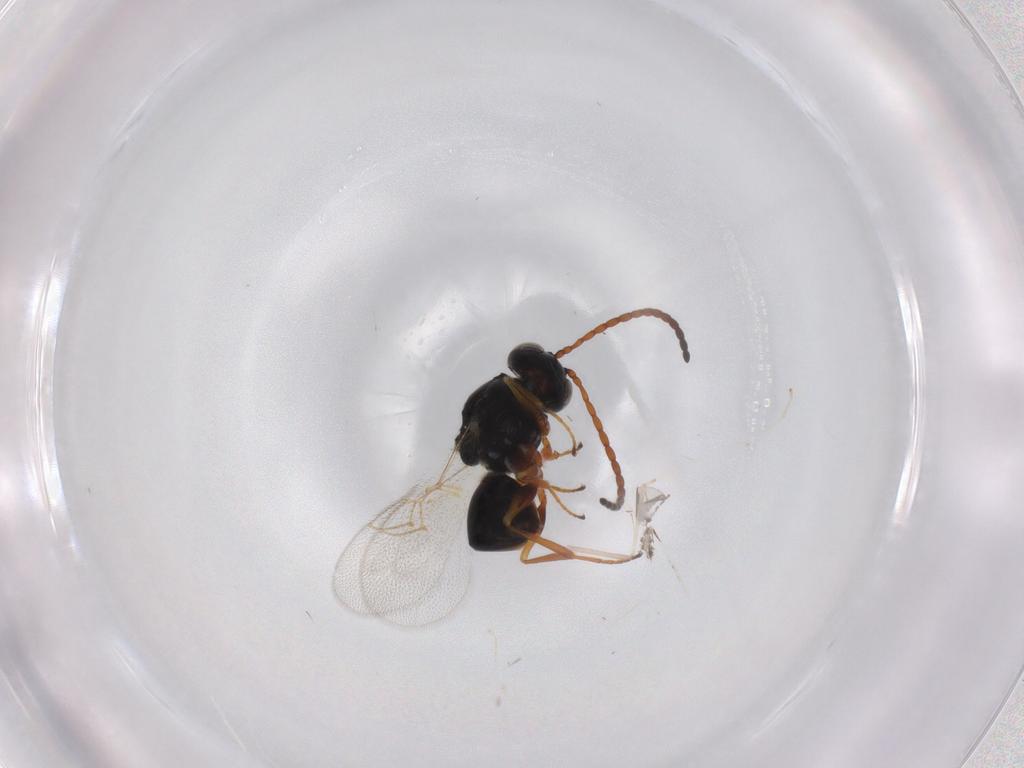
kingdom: Animalia
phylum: Arthropoda
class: Insecta
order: Hymenoptera
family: Figitidae
